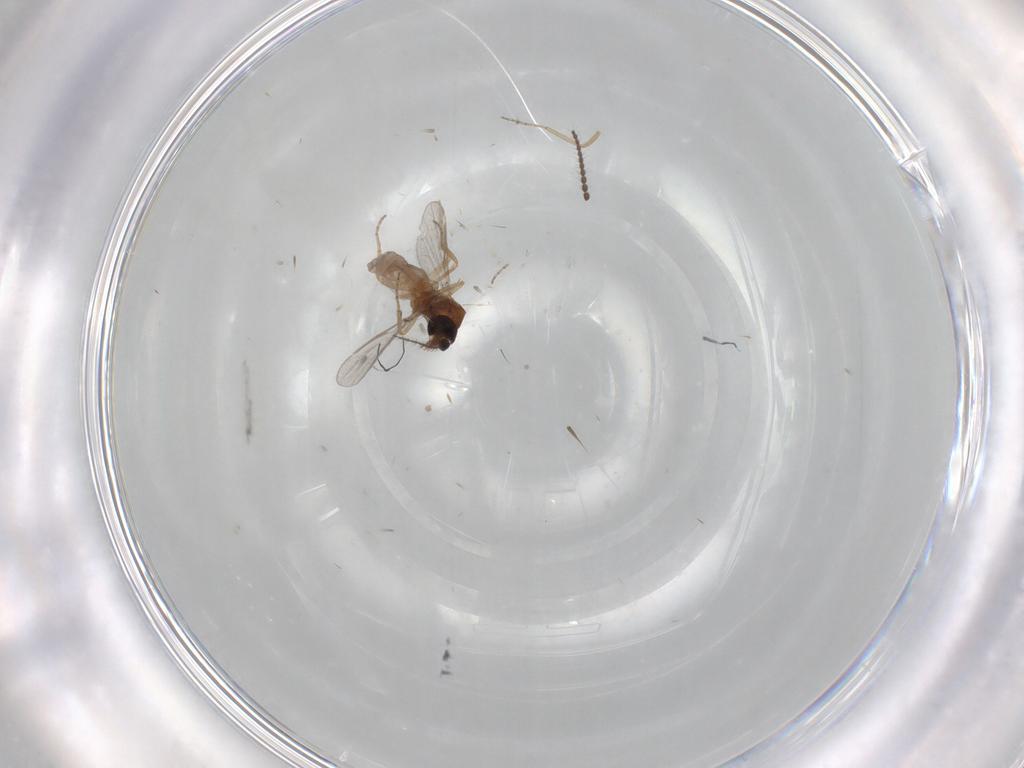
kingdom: Animalia
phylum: Arthropoda
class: Insecta
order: Diptera
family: Ceratopogonidae
